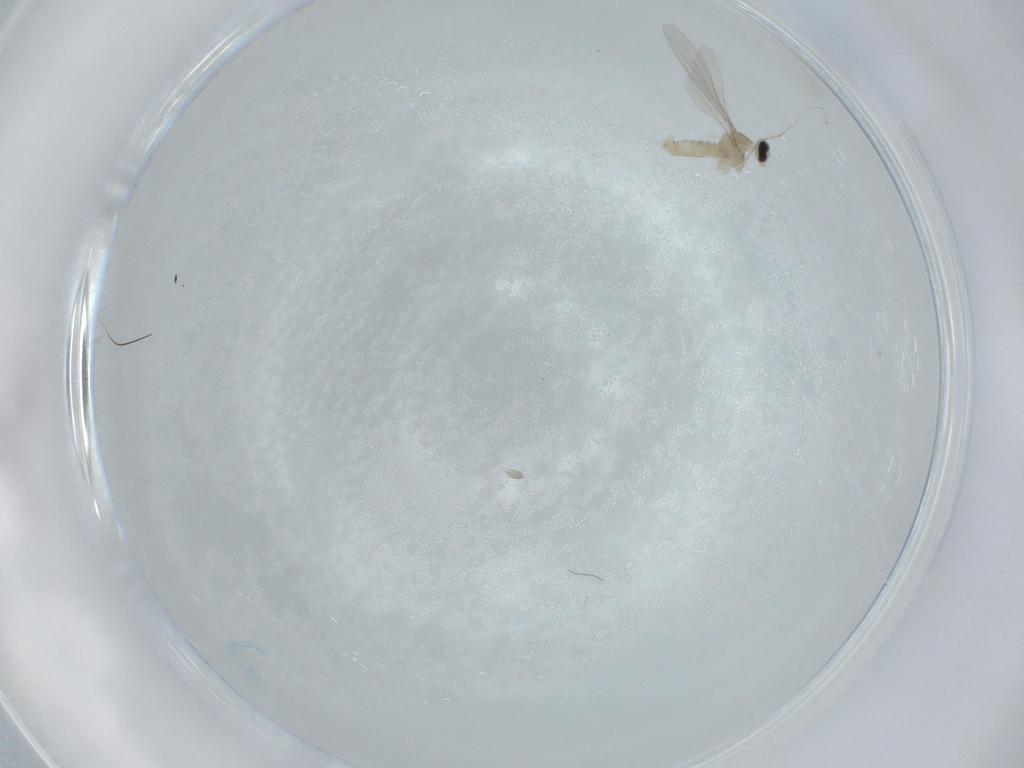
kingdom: Animalia
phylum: Arthropoda
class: Insecta
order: Diptera
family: Cecidomyiidae
